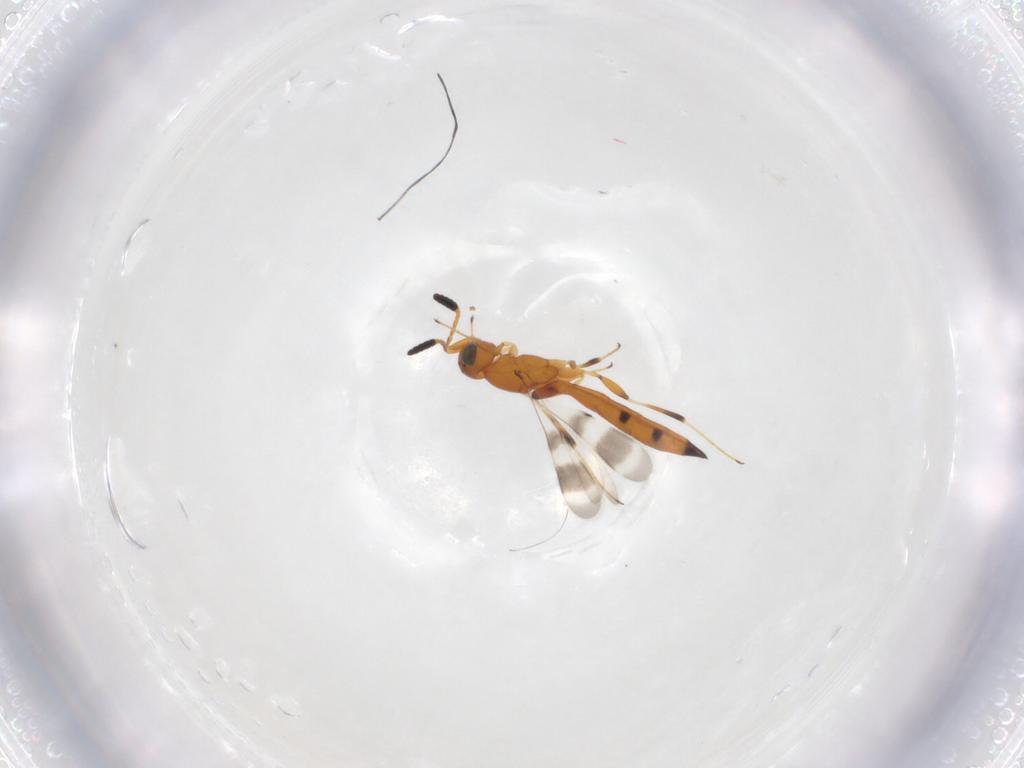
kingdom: Animalia
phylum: Arthropoda
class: Insecta
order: Hymenoptera
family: Scelionidae
